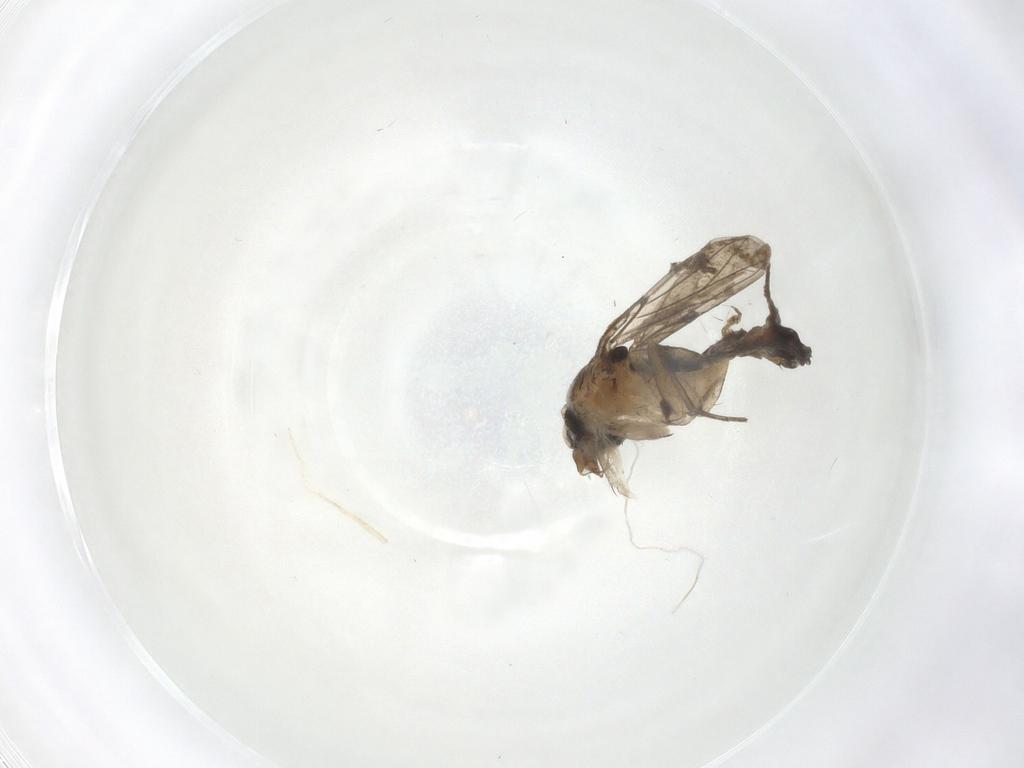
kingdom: Animalia
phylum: Arthropoda
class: Insecta
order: Diptera
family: Phoridae
